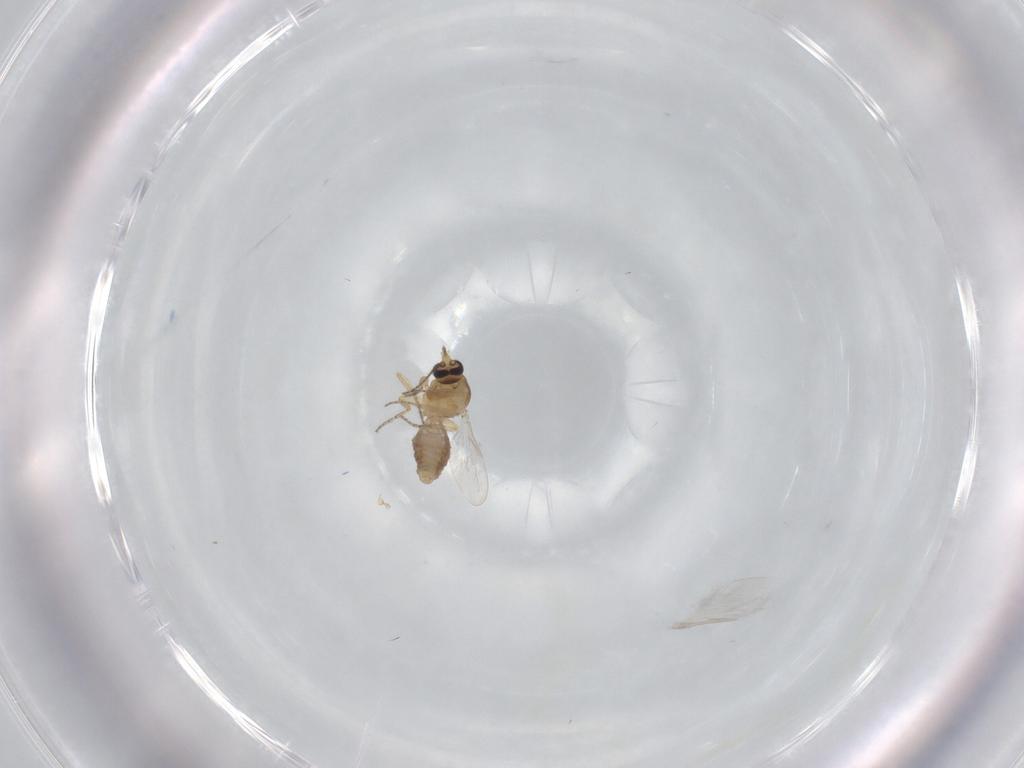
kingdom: Animalia
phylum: Arthropoda
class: Insecta
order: Diptera
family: Ceratopogonidae
